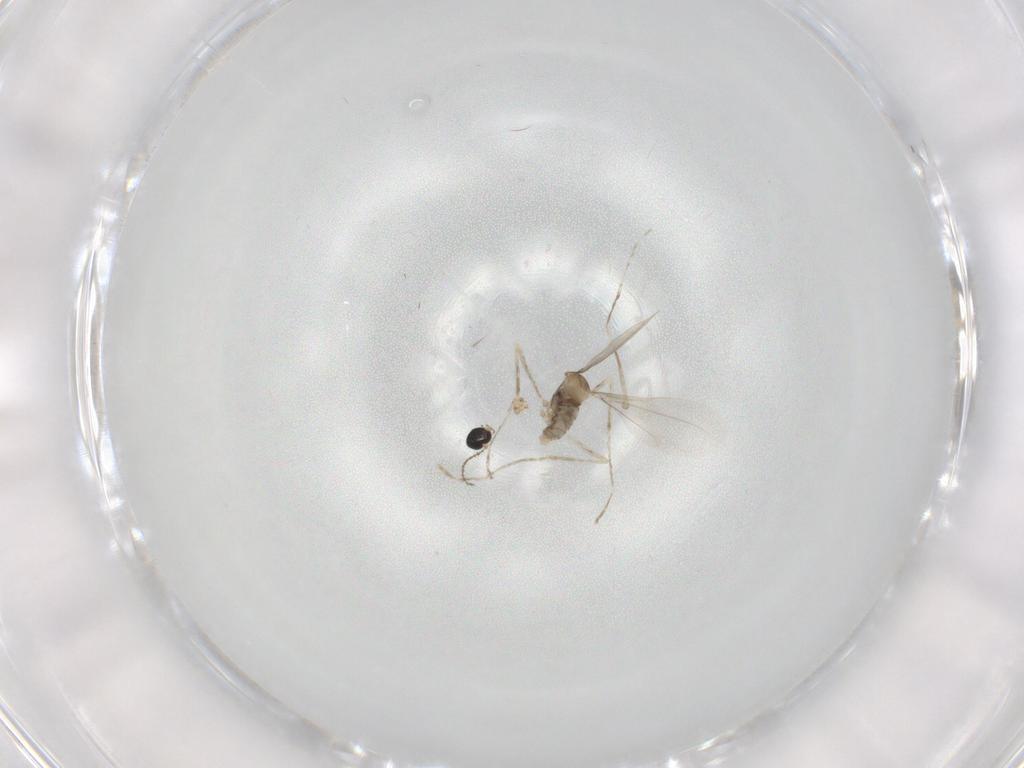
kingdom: Animalia
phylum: Arthropoda
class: Insecta
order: Diptera
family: Cecidomyiidae
